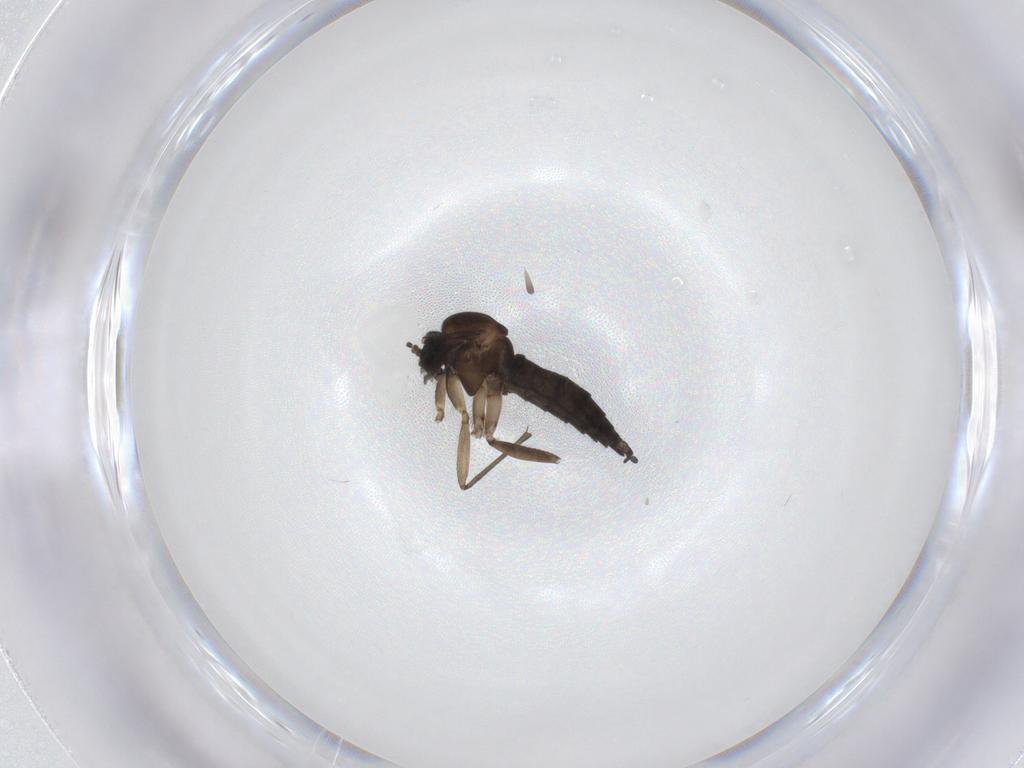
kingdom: Animalia
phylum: Arthropoda
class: Insecta
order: Diptera
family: Sciaridae
